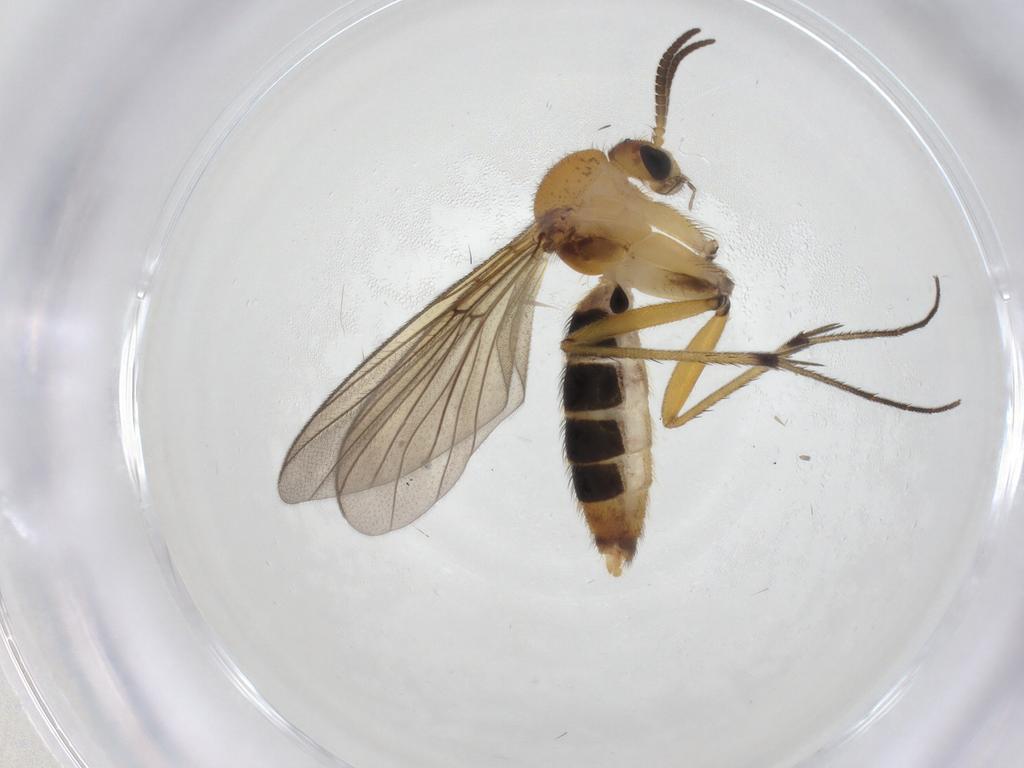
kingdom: Animalia
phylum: Arthropoda
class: Insecta
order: Diptera
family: Mycetophilidae
